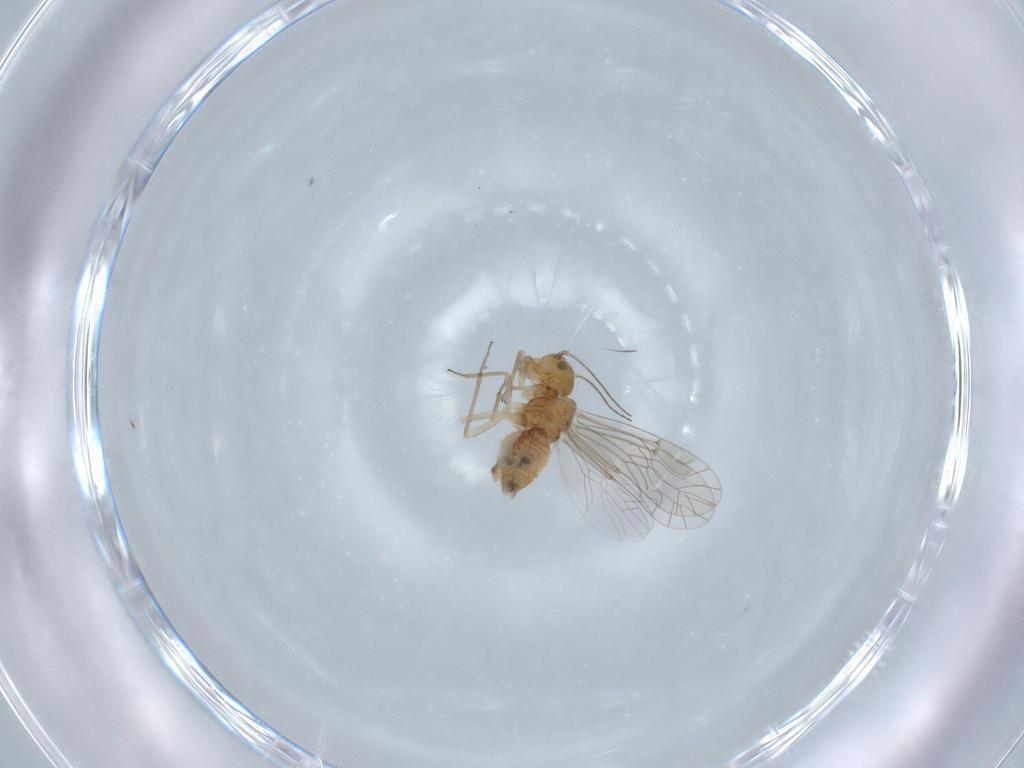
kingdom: Animalia
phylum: Arthropoda
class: Insecta
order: Psocodea
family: Lachesillidae
